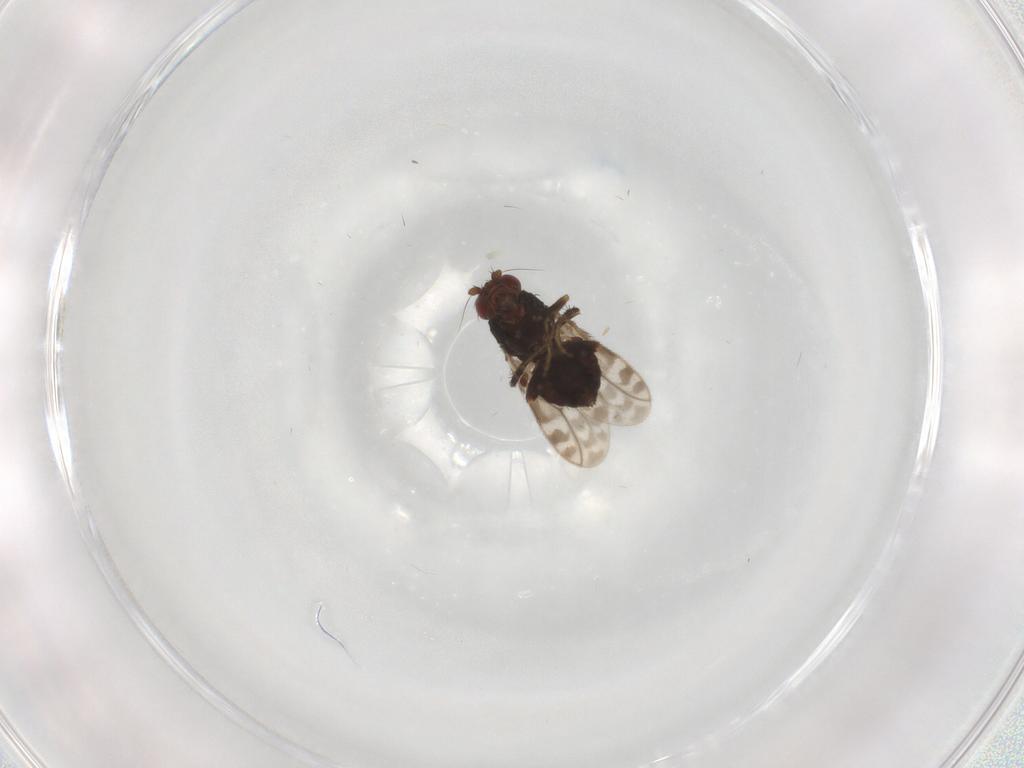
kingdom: Animalia
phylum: Arthropoda
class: Insecta
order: Diptera
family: Sphaeroceridae
